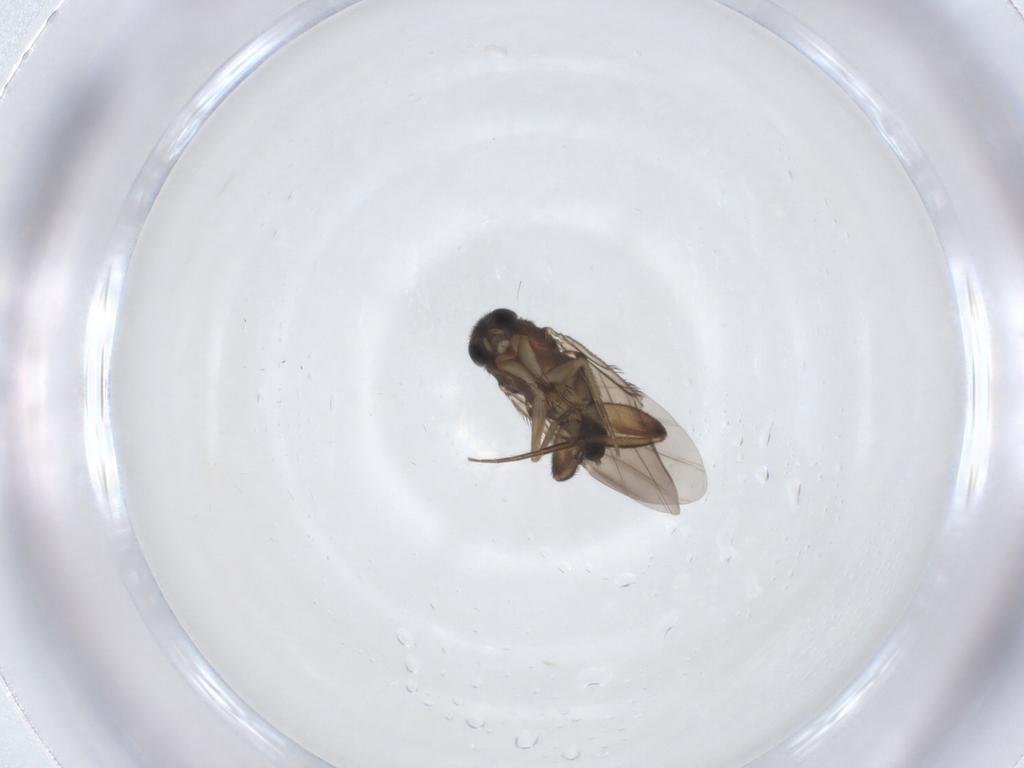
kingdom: Animalia
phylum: Arthropoda
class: Insecta
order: Diptera
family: Phoridae
